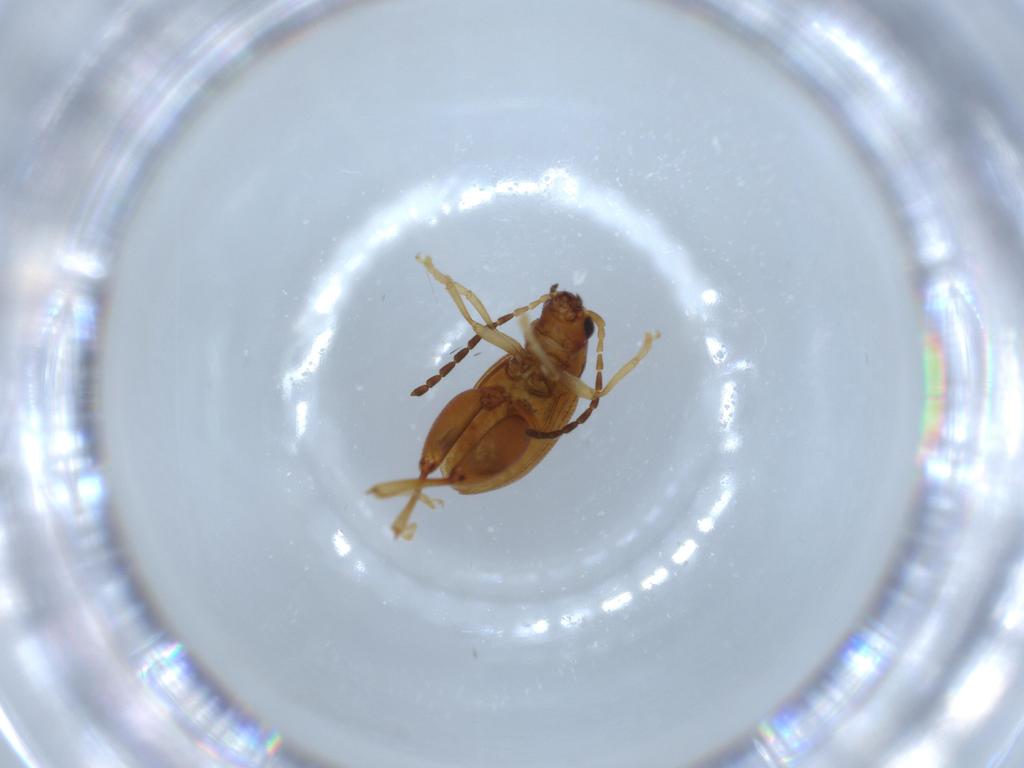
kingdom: Animalia
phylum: Arthropoda
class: Insecta
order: Coleoptera
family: Chrysomelidae
